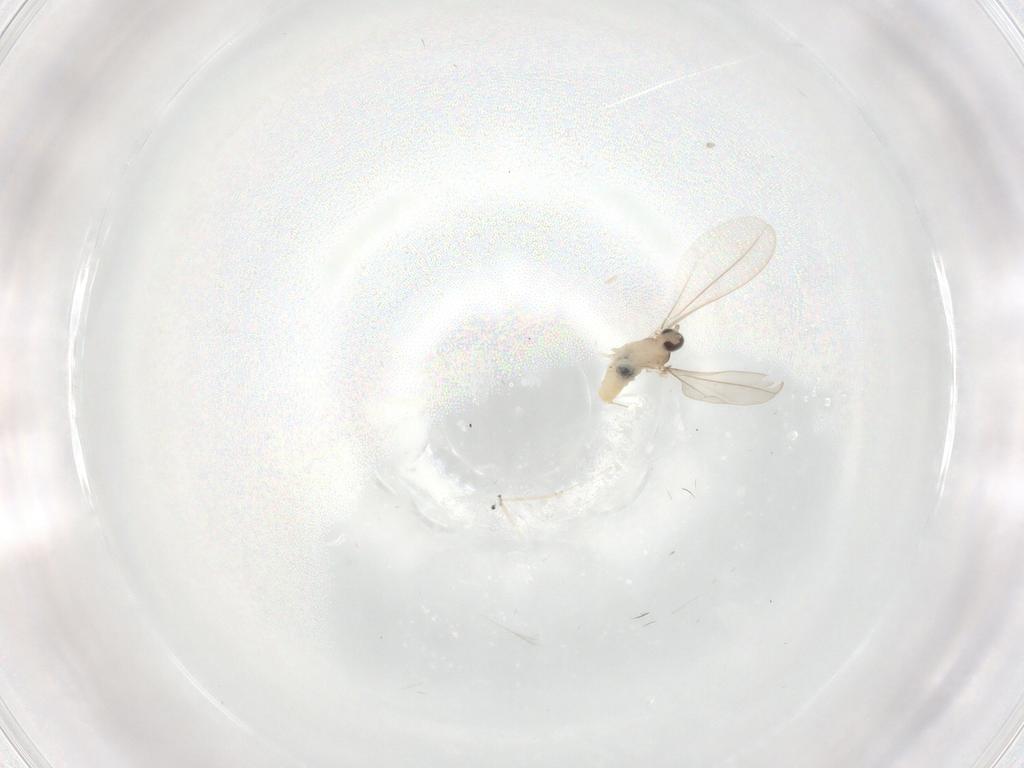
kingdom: Animalia
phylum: Arthropoda
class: Insecta
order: Diptera
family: Cecidomyiidae
